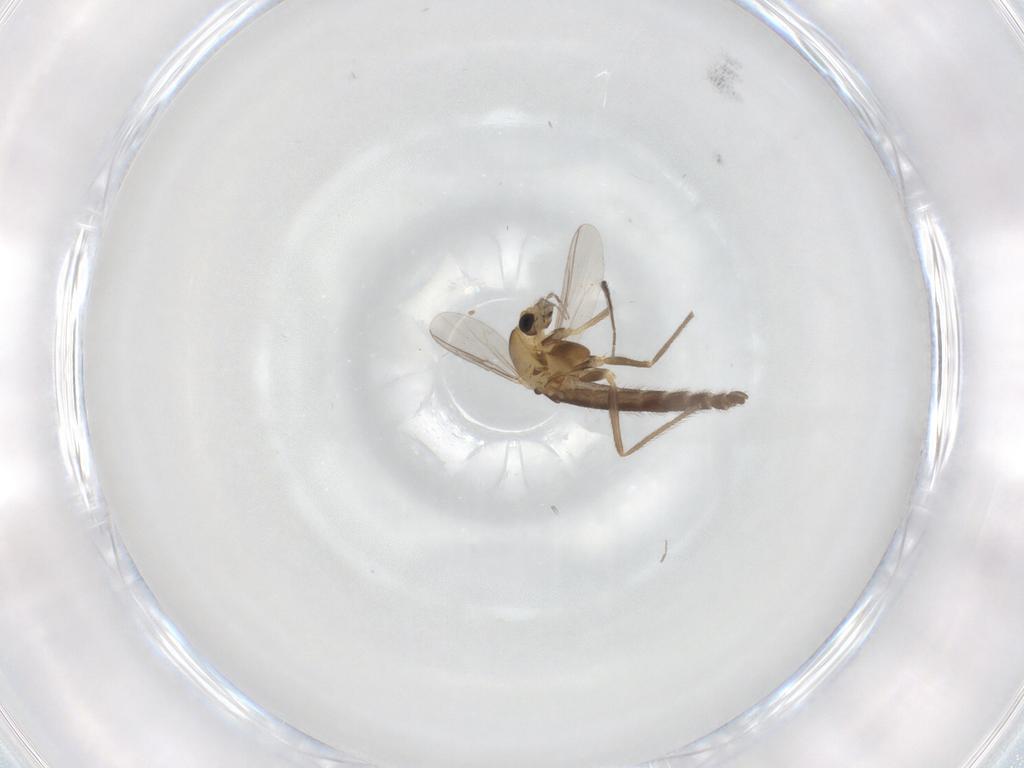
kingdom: Animalia
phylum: Arthropoda
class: Insecta
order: Diptera
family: Chironomidae
